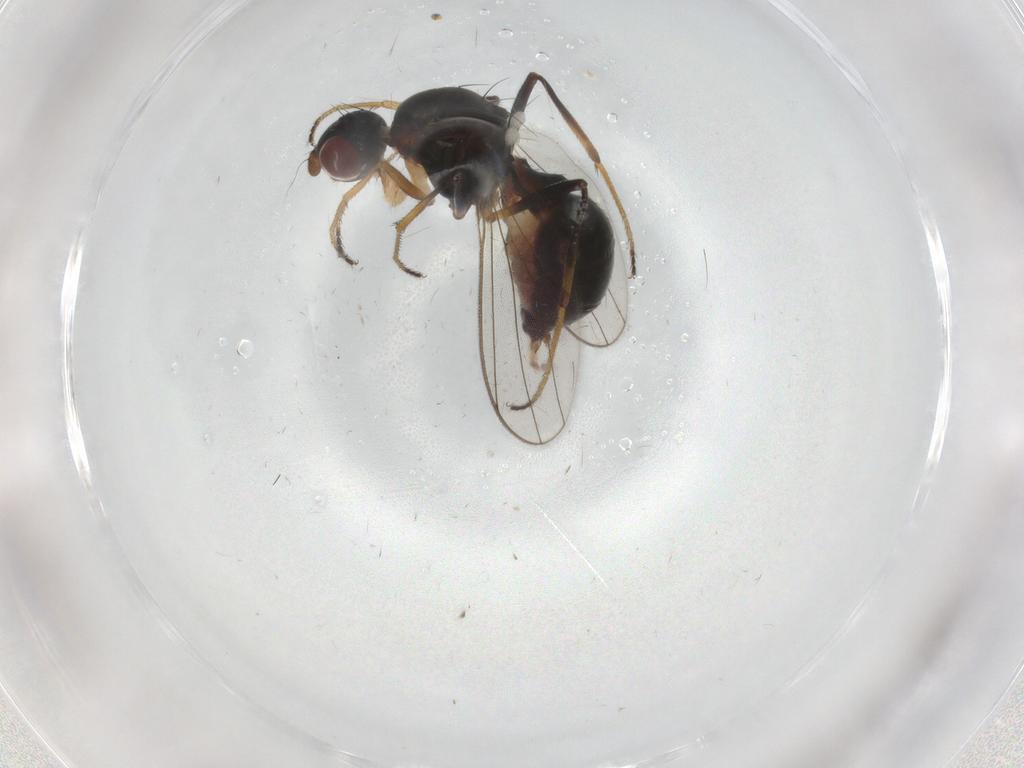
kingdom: Animalia
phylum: Arthropoda
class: Insecta
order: Diptera
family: Sepsidae
